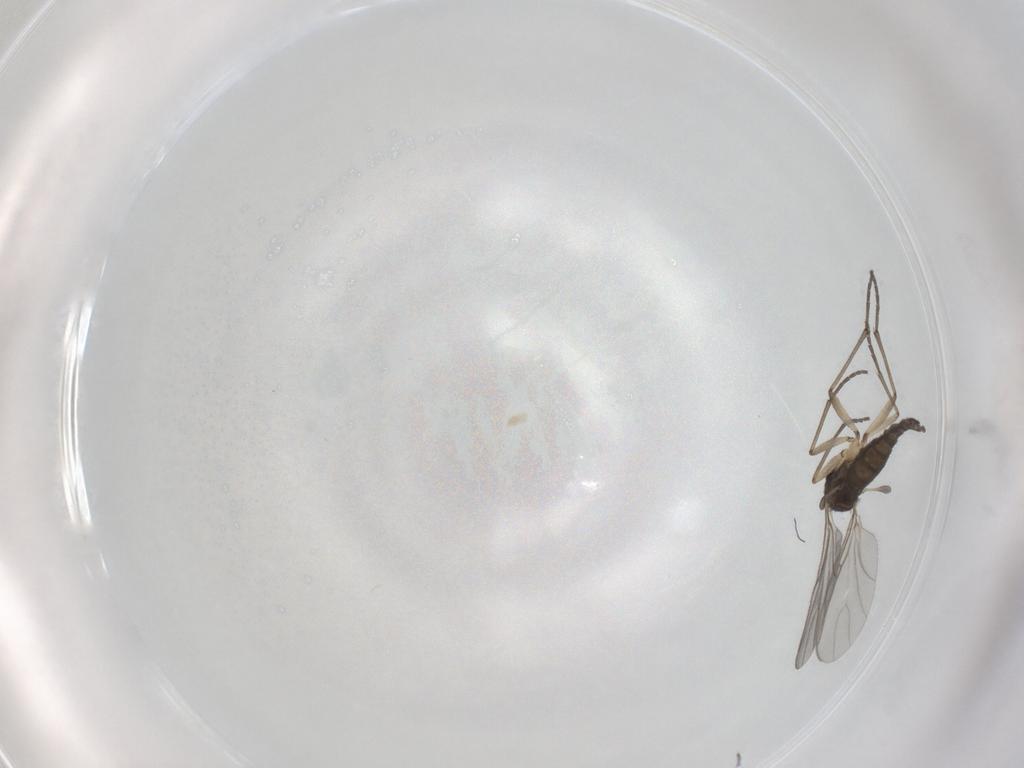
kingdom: Animalia
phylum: Arthropoda
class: Insecta
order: Diptera
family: Sciaridae
